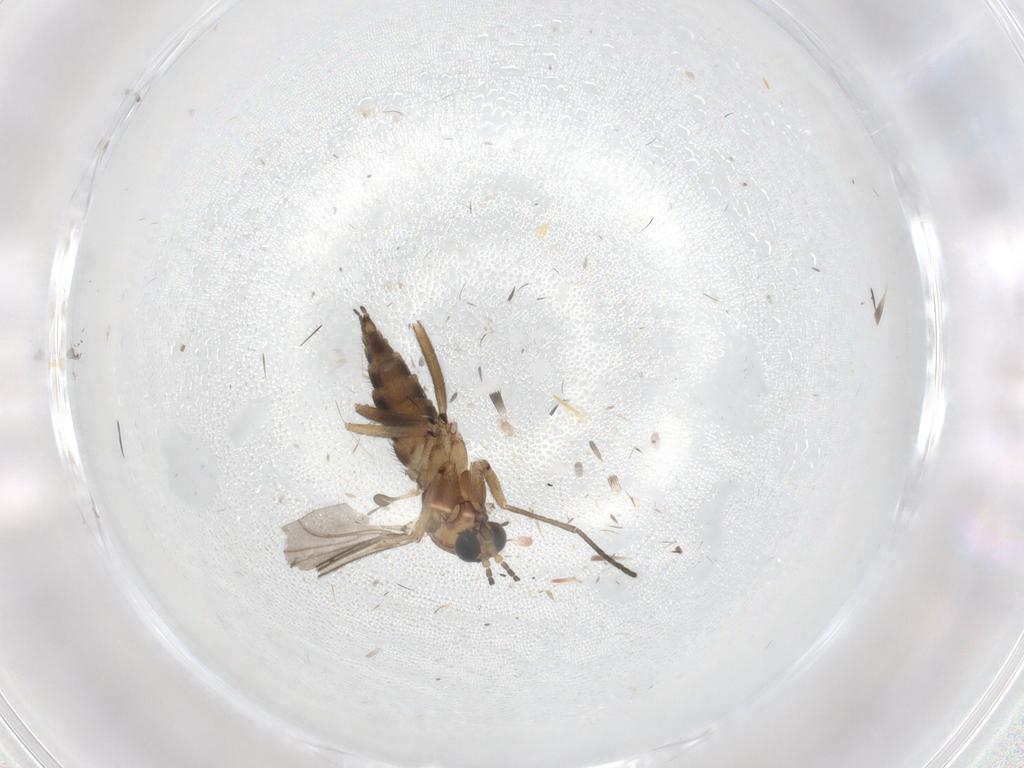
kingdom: Animalia
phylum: Arthropoda
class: Insecta
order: Diptera
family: Sciaridae
